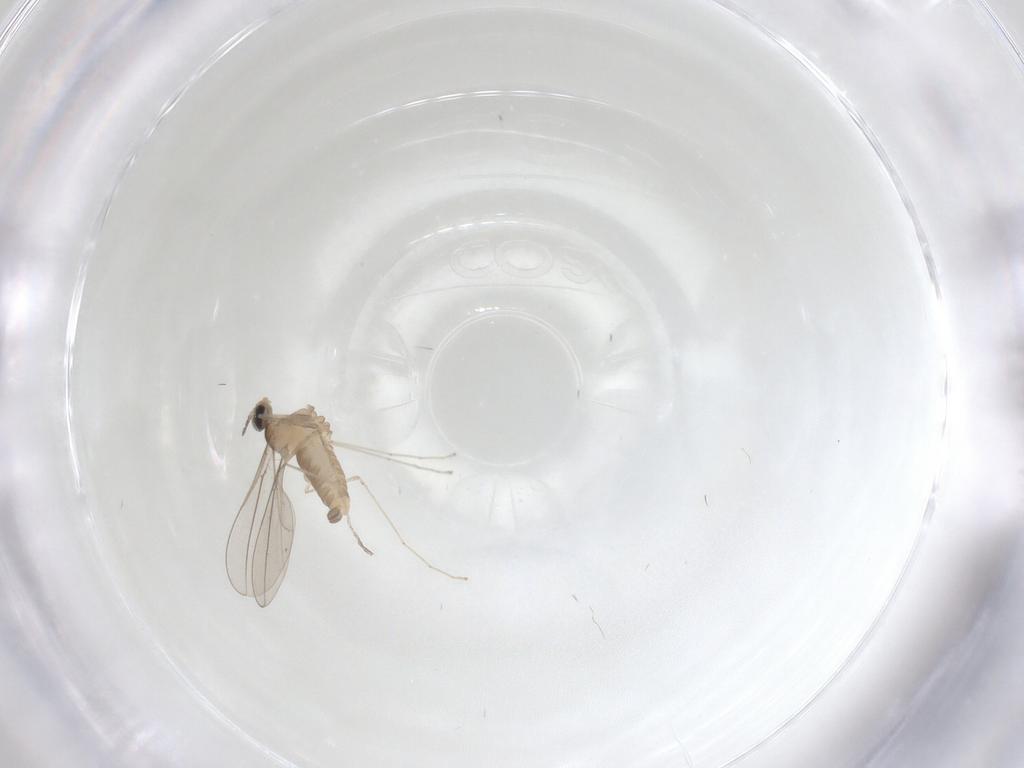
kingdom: Animalia
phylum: Arthropoda
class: Insecta
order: Diptera
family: Cecidomyiidae
